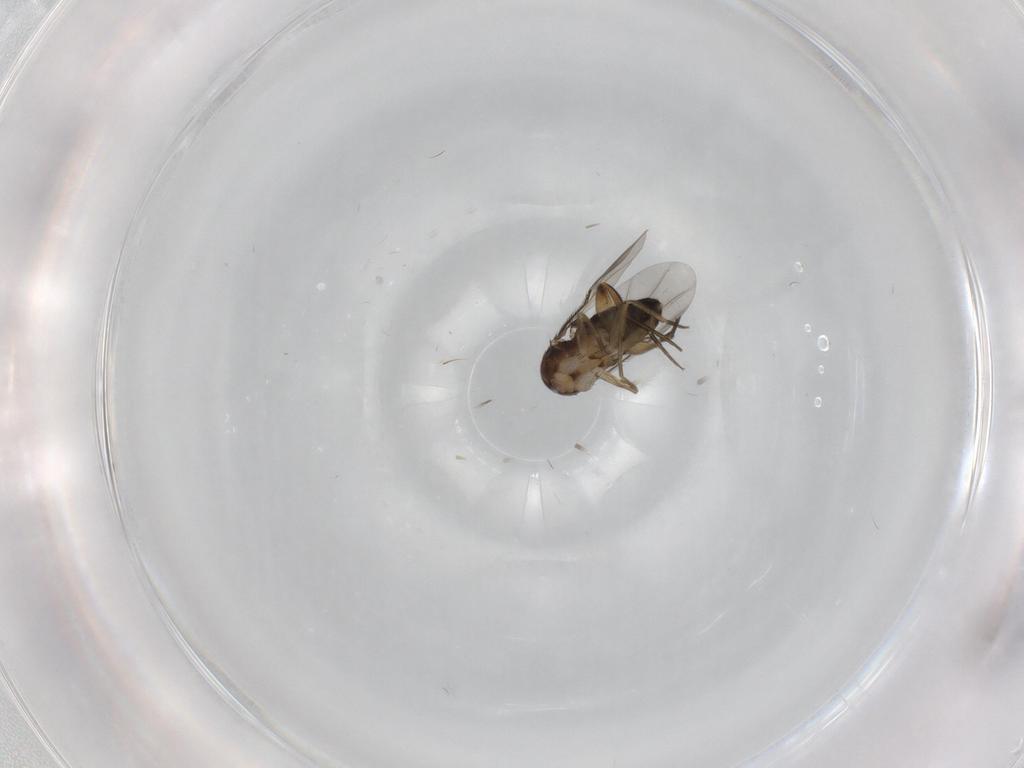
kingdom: Animalia
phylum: Arthropoda
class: Insecta
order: Diptera
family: Phoridae
